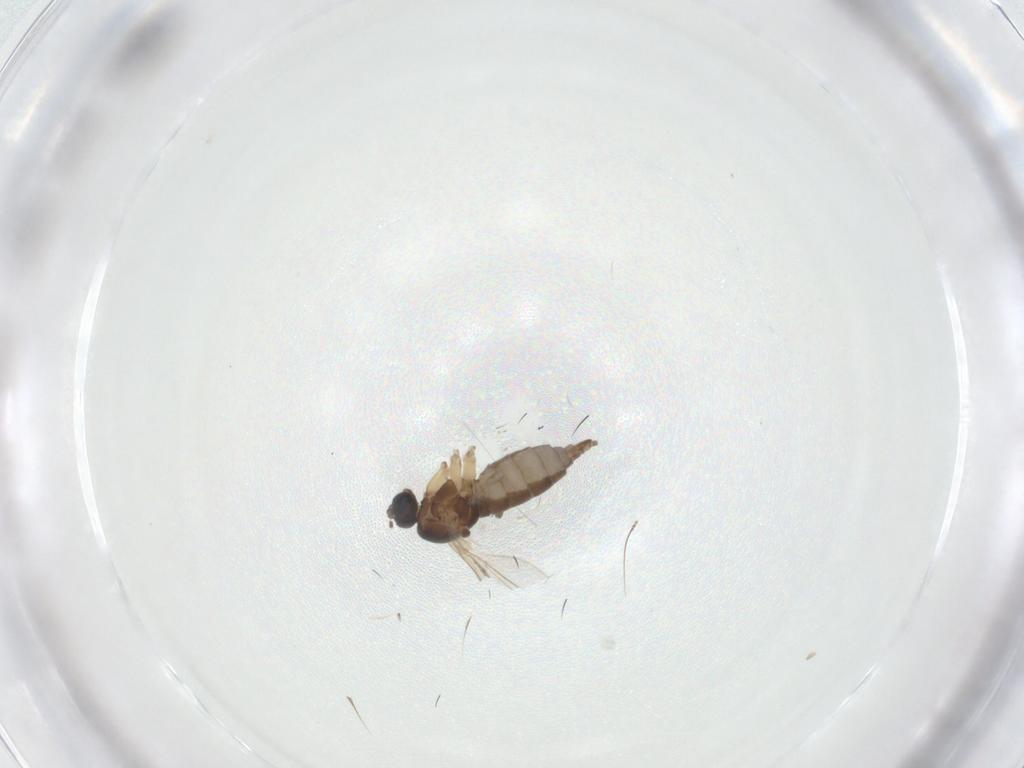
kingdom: Animalia
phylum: Arthropoda
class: Insecta
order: Diptera
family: Sciaridae
